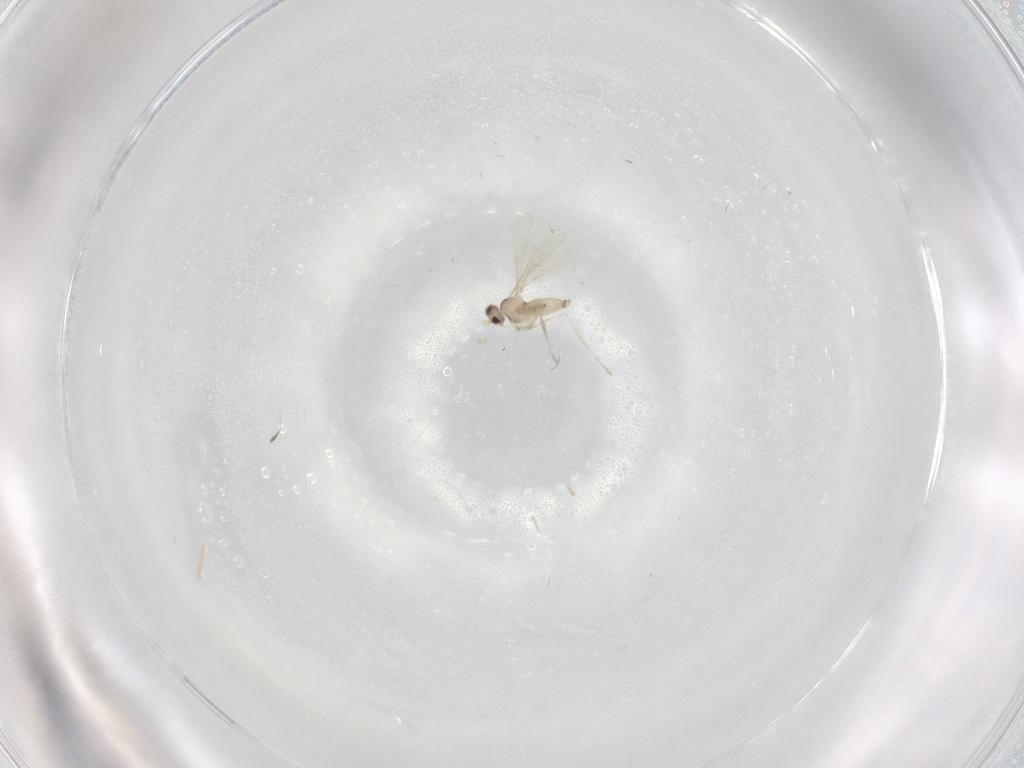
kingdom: Animalia
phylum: Arthropoda
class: Insecta
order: Diptera
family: Cecidomyiidae
